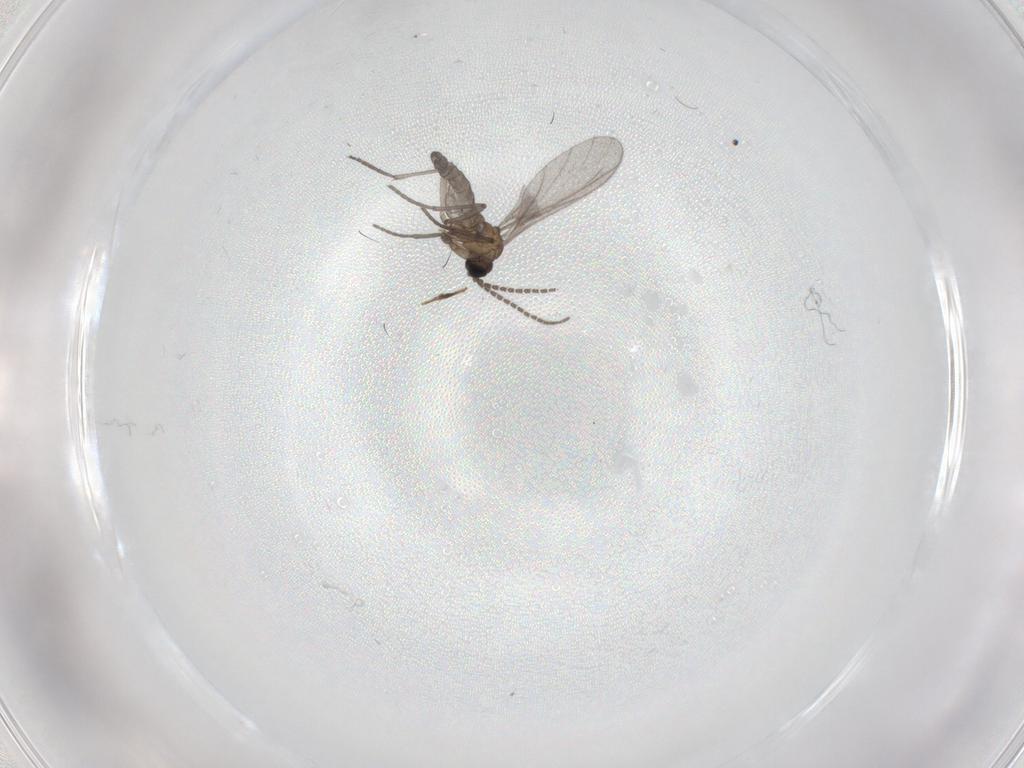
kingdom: Animalia
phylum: Arthropoda
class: Insecta
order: Diptera
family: Sciaridae
